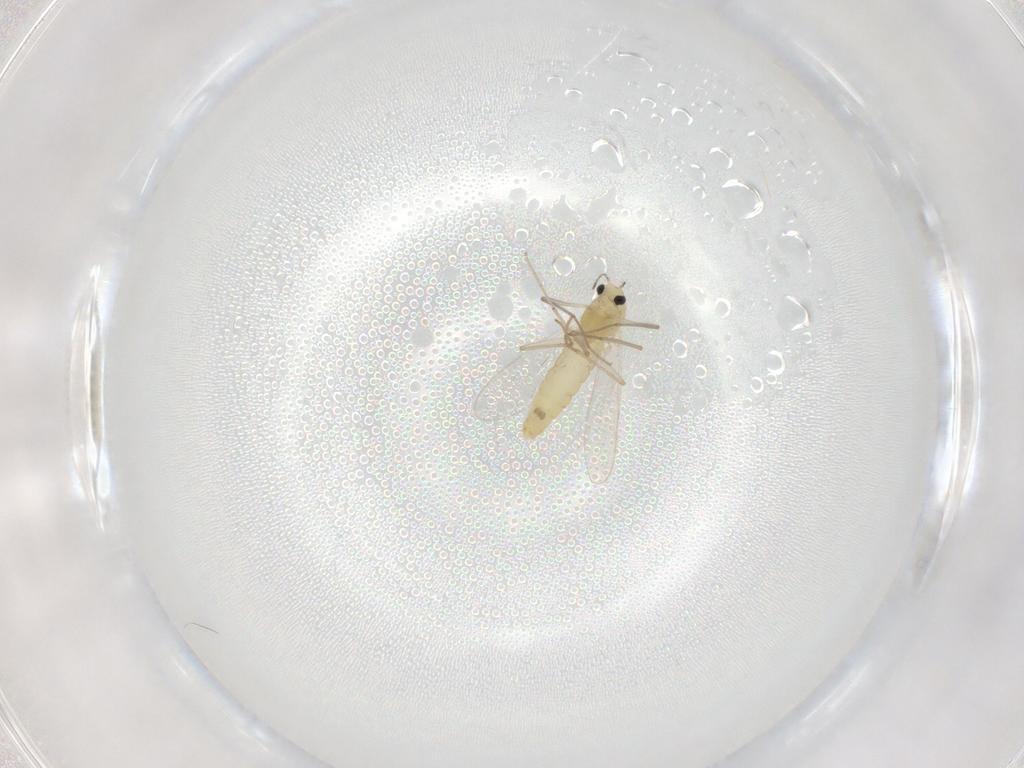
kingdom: Animalia
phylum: Arthropoda
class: Insecta
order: Diptera
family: Chironomidae
